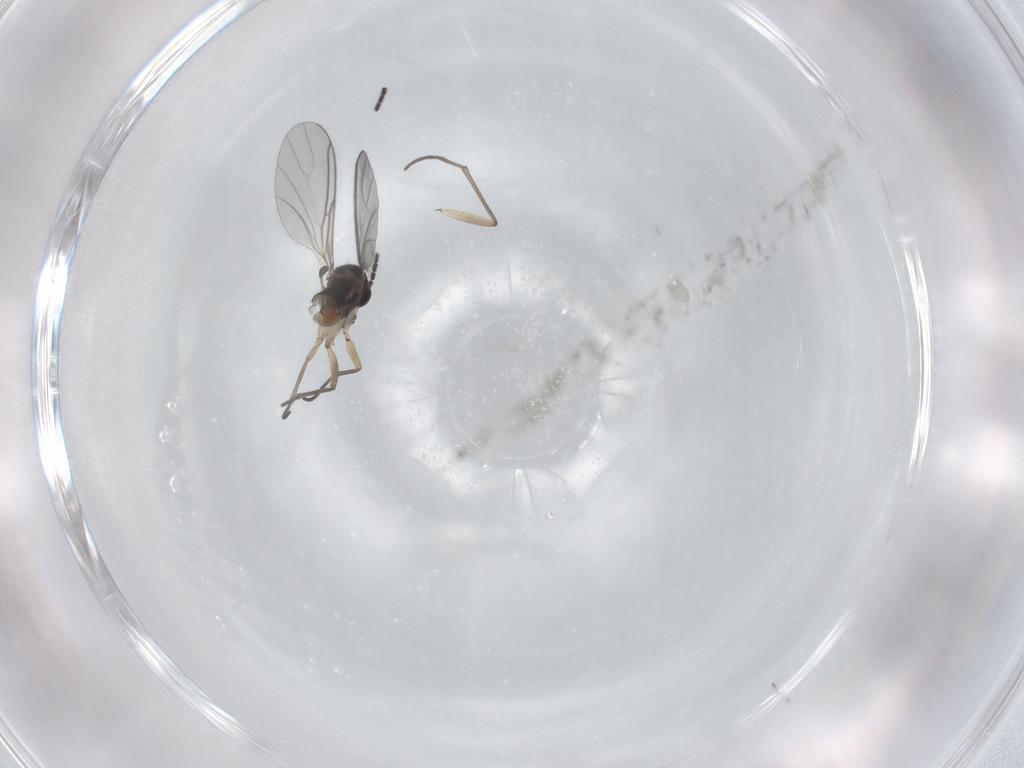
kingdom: Animalia
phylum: Arthropoda
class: Insecta
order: Diptera
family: Sciaridae
